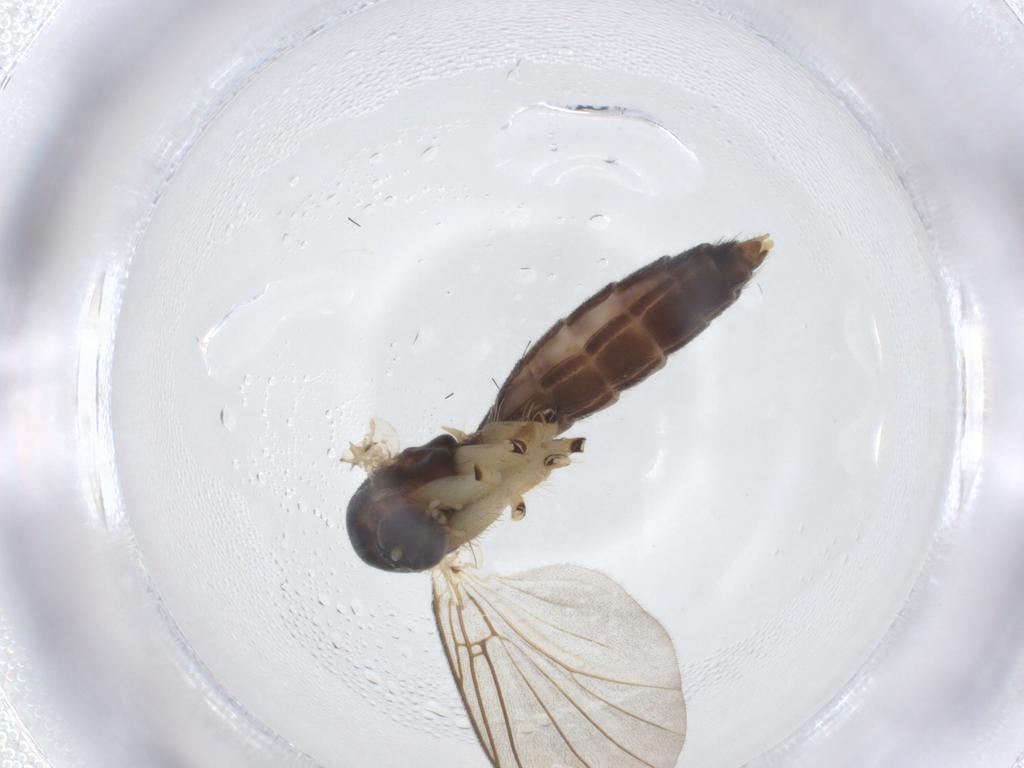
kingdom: Animalia
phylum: Arthropoda
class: Insecta
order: Diptera
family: Mycetophilidae
